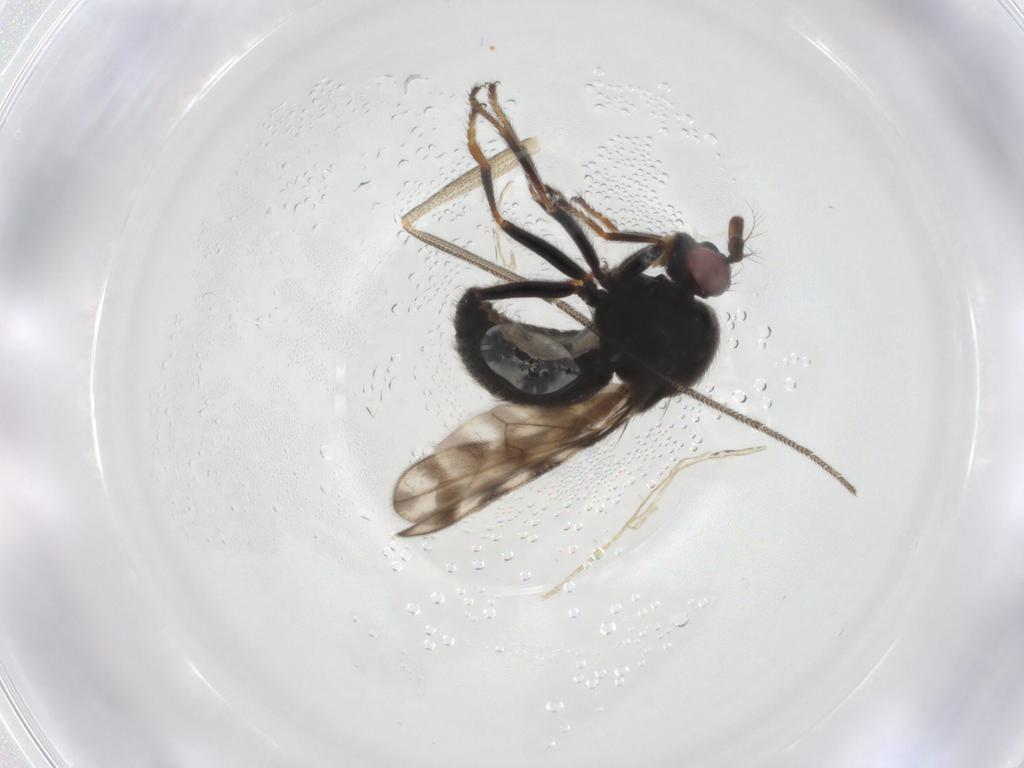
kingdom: Animalia
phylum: Arthropoda
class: Insecta
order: Diptera
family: Ephydridae
